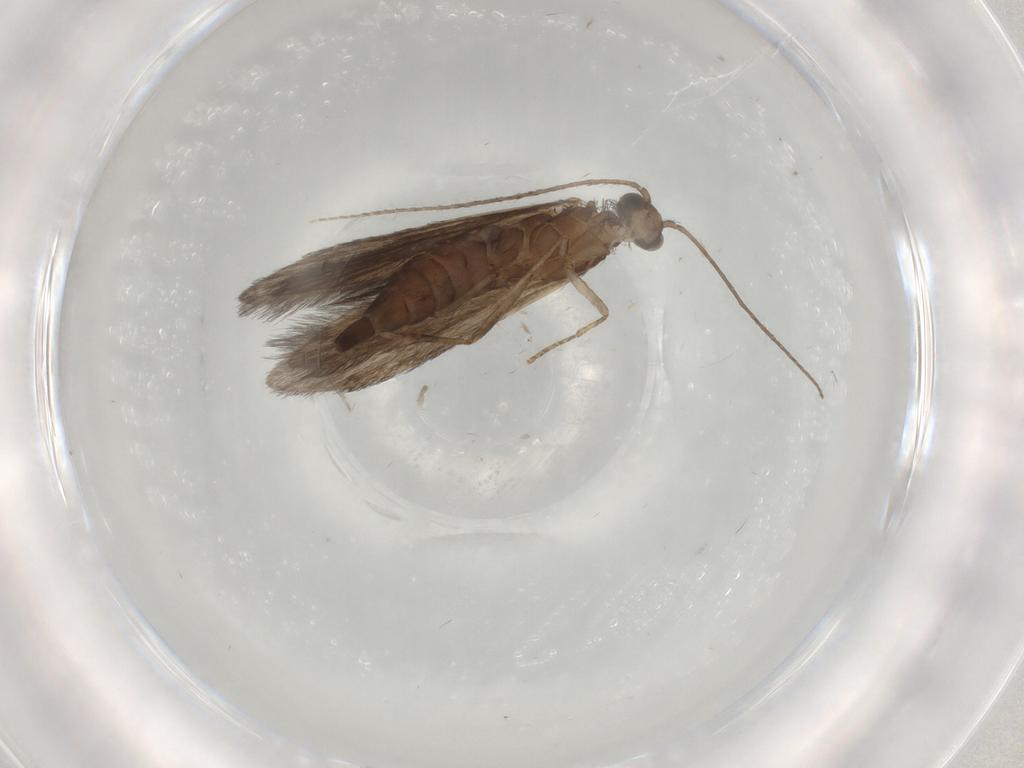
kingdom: Animalia
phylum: Arthropoda
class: Insecta
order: Trichoptera
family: Xiphocentronidae
